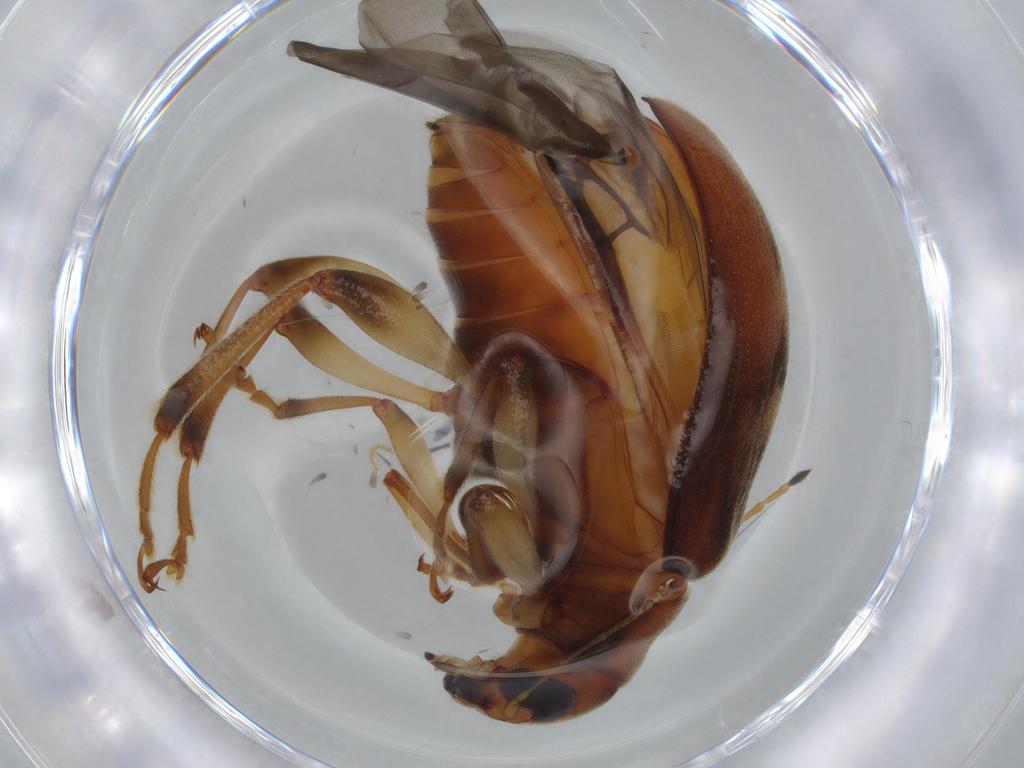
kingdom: Animalia
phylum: Arthropoda
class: Insecta
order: Coleoptera
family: Chrysomelidae
